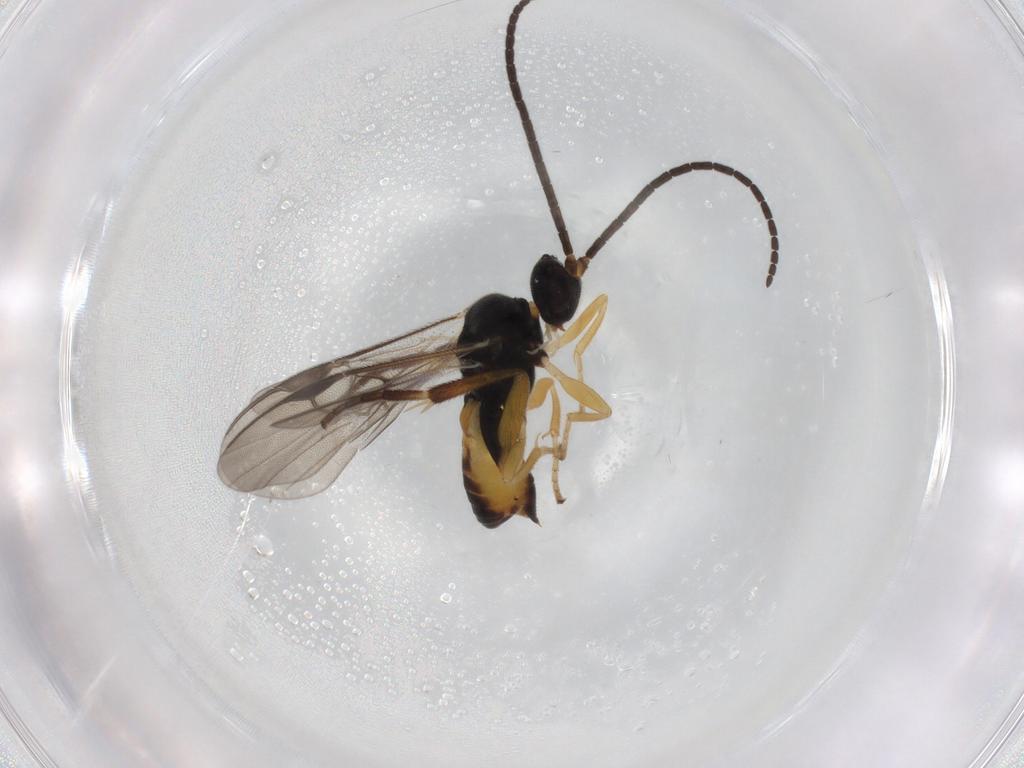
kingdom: Animalia
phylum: Arthropoda
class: Insecta
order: Hymenoptera
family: Braconidae
